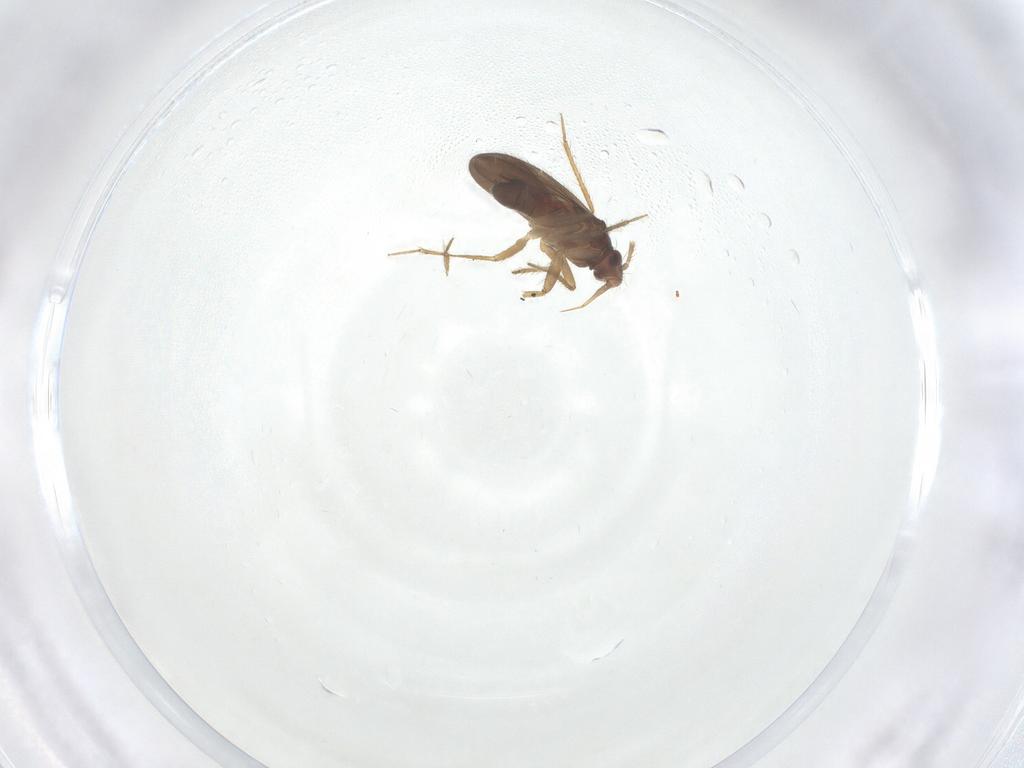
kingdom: Animalia
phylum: Arthropoda
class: Insecta
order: Hemiptera
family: Ceratocombidae
